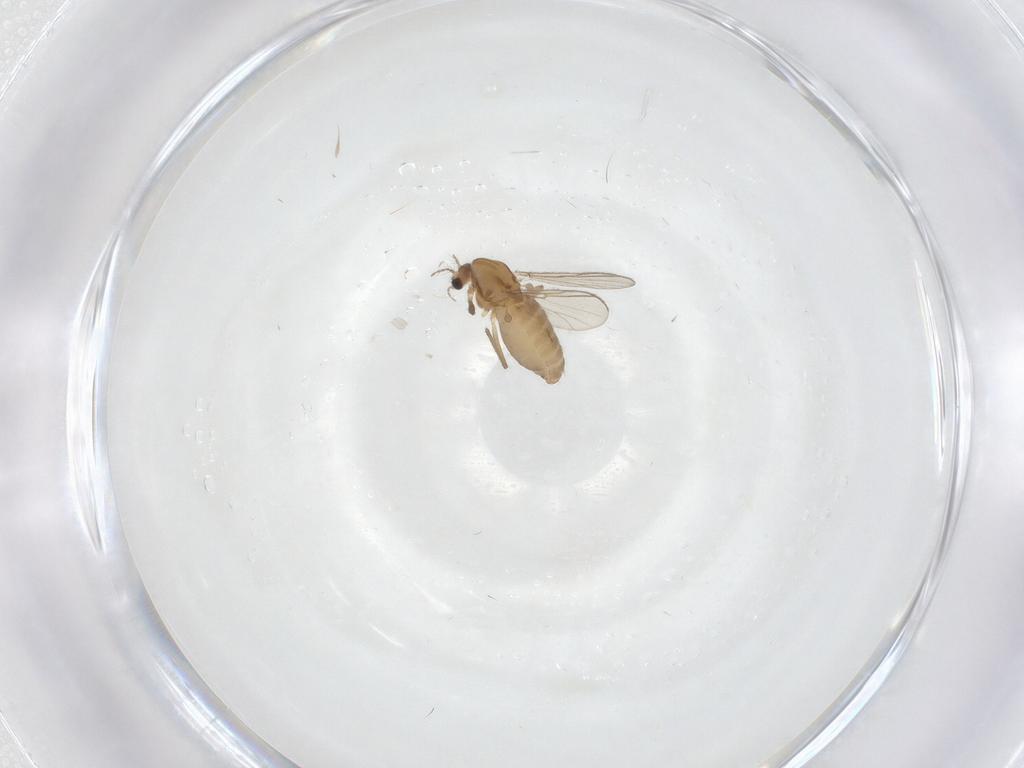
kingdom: Animalia
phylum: Arthropoda
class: Insecta
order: Diptera
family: Chironomidae
